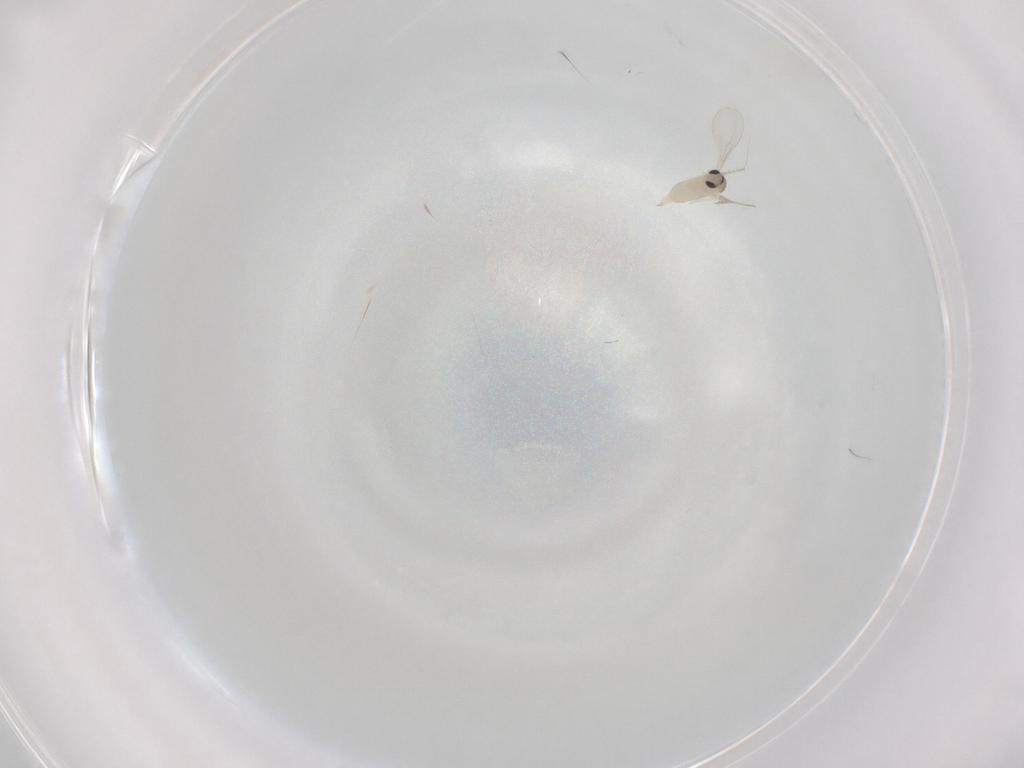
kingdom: Animalia
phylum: Arthropoda
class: Insecta
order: Diptera
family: Cecidomyiidae
